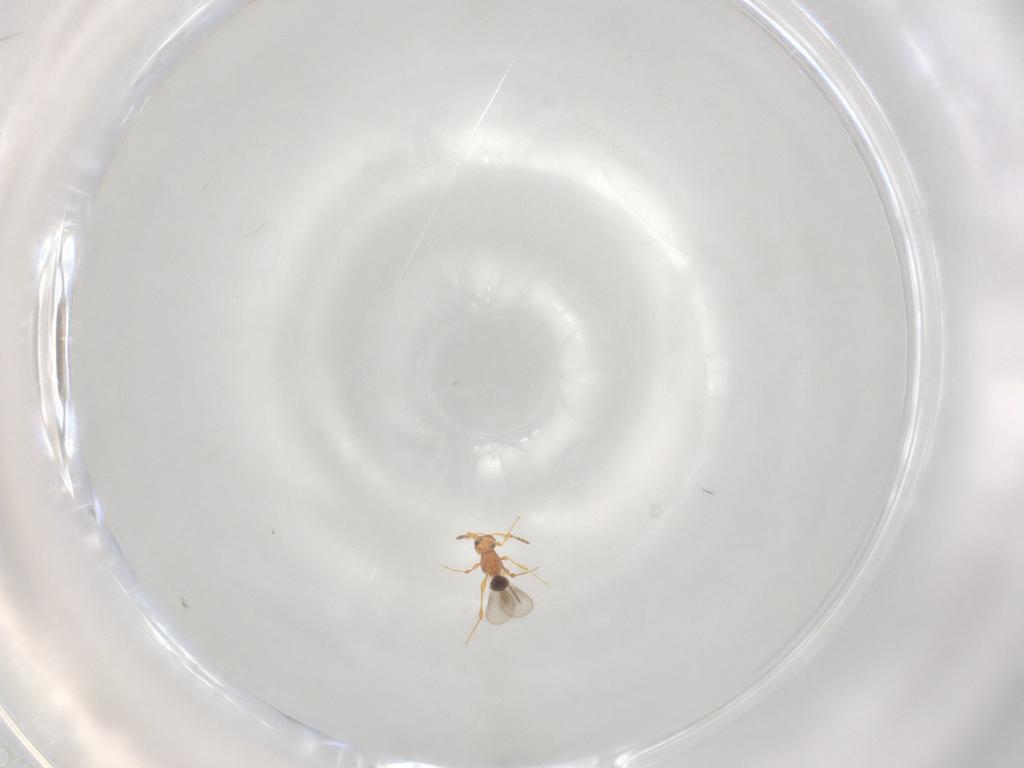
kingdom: Animalia
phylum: Arthropoda
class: Insecta
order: Hymenoptera
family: Platygastridae
